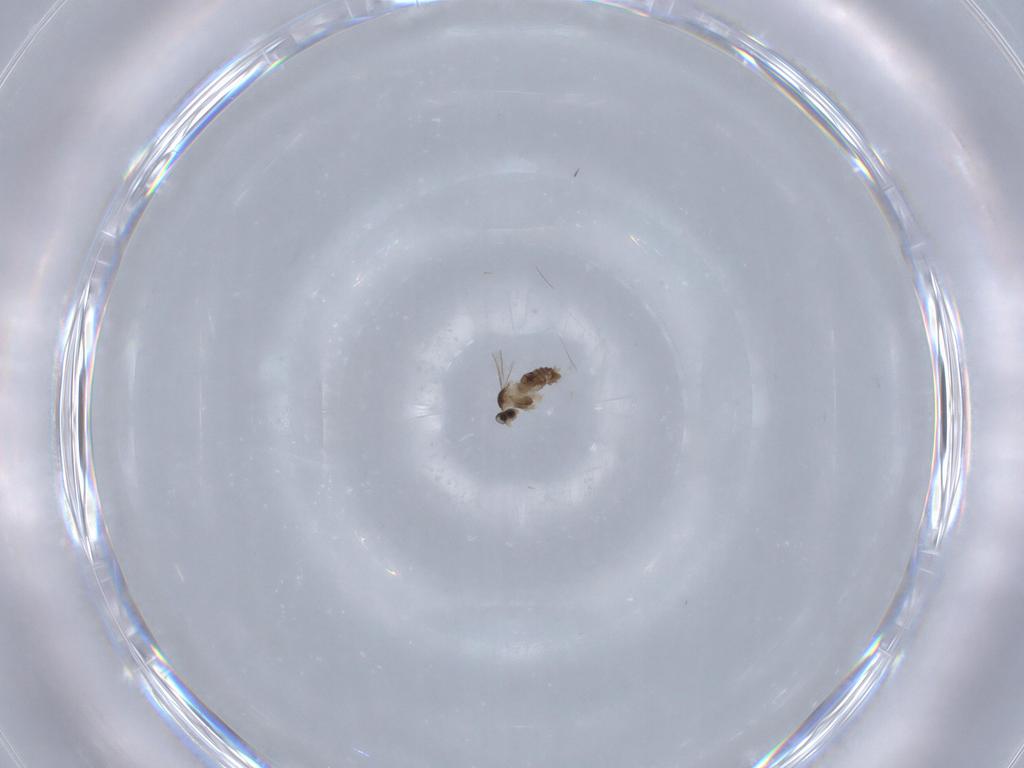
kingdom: Animalia
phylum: Arthropoda
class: Insecta
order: Diptera
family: Cecidomyiidae
